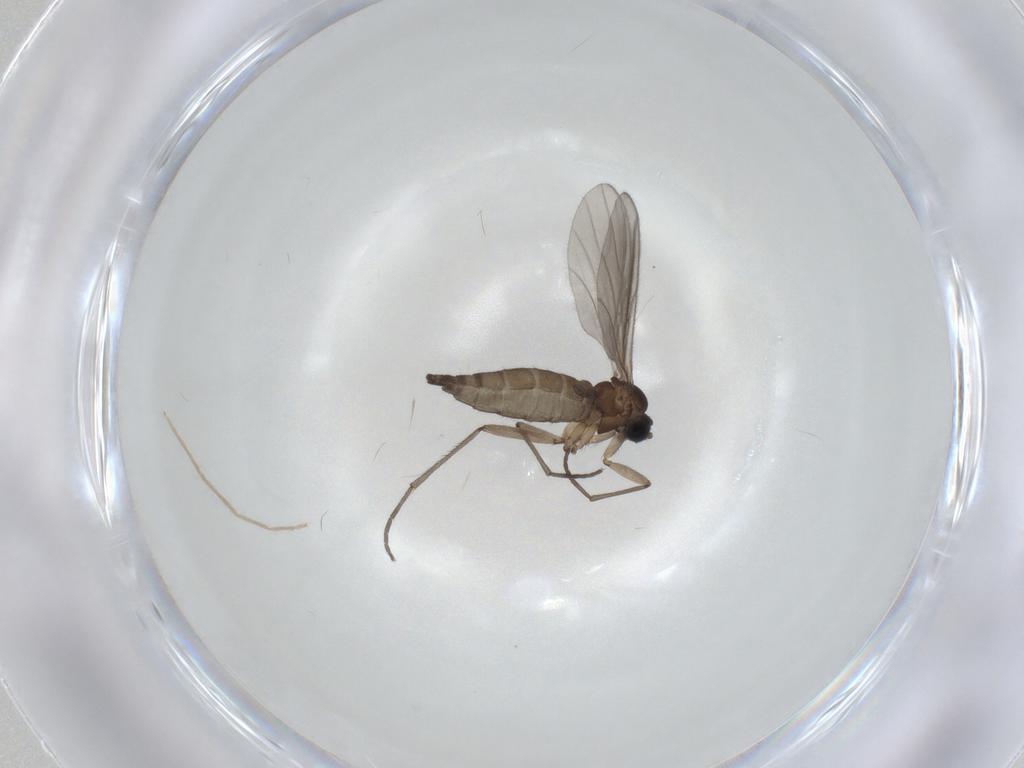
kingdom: Animalia
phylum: Arthropoda
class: Insecta
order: Diptera
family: Chironomidae
